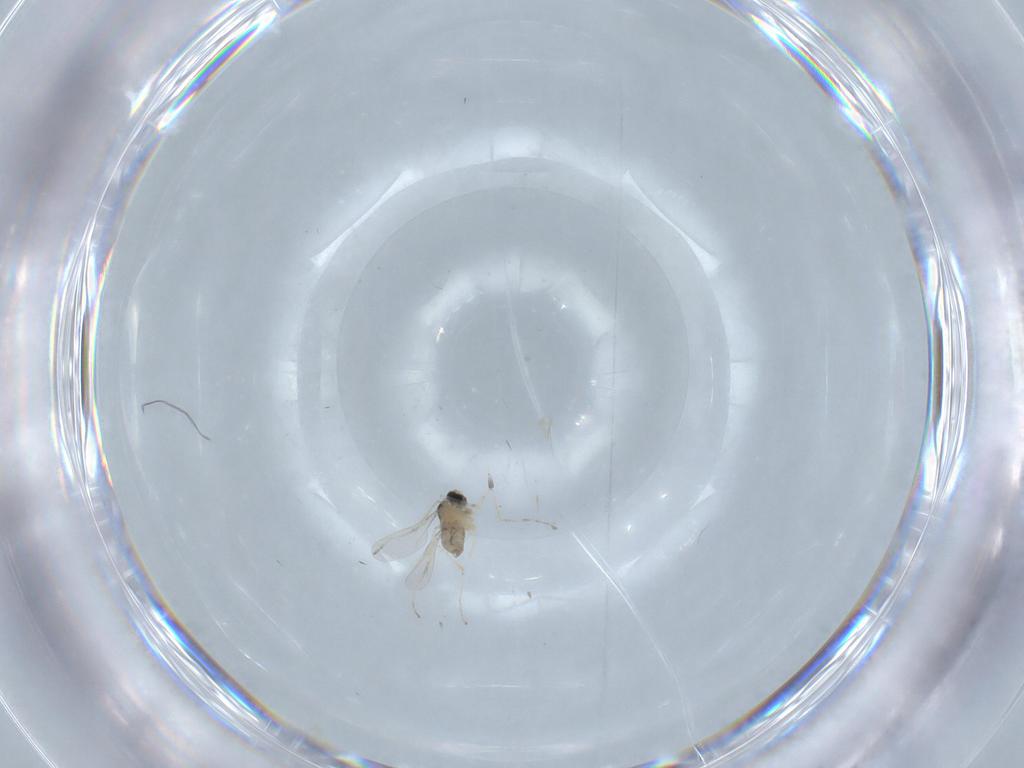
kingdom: Animalia
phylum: Arthropoda
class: Insecta
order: Diptera
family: Cecidomyiidae
